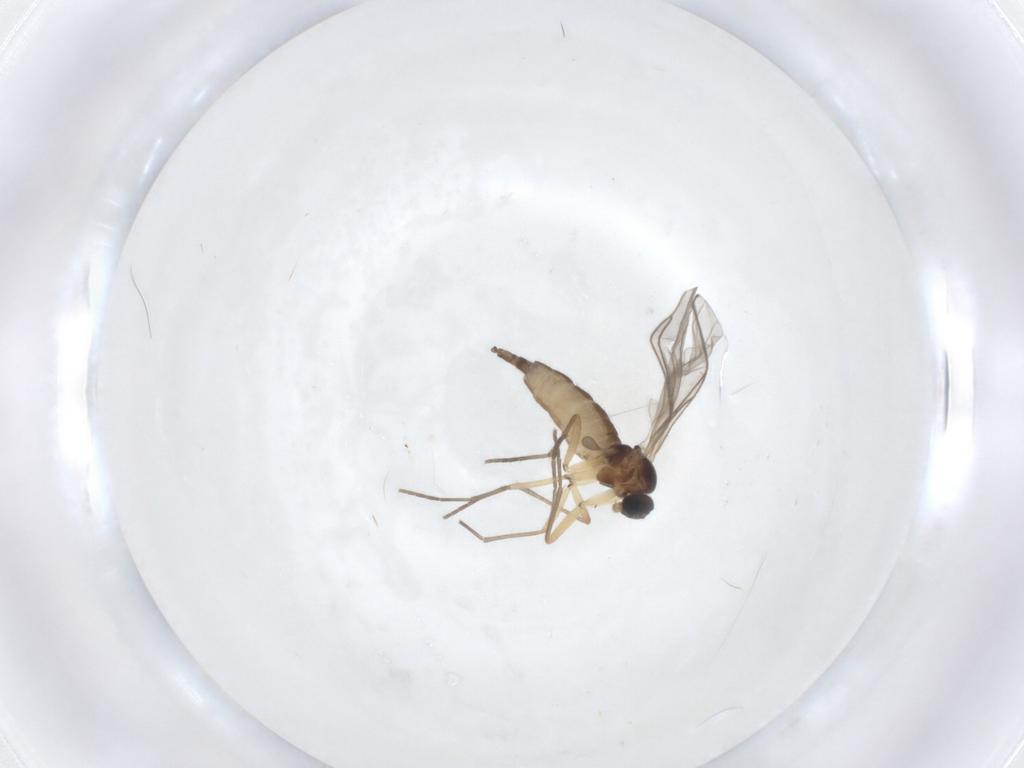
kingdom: Animalia
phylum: Arthropoda
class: Insecta
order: Diptera
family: Sciaridae
